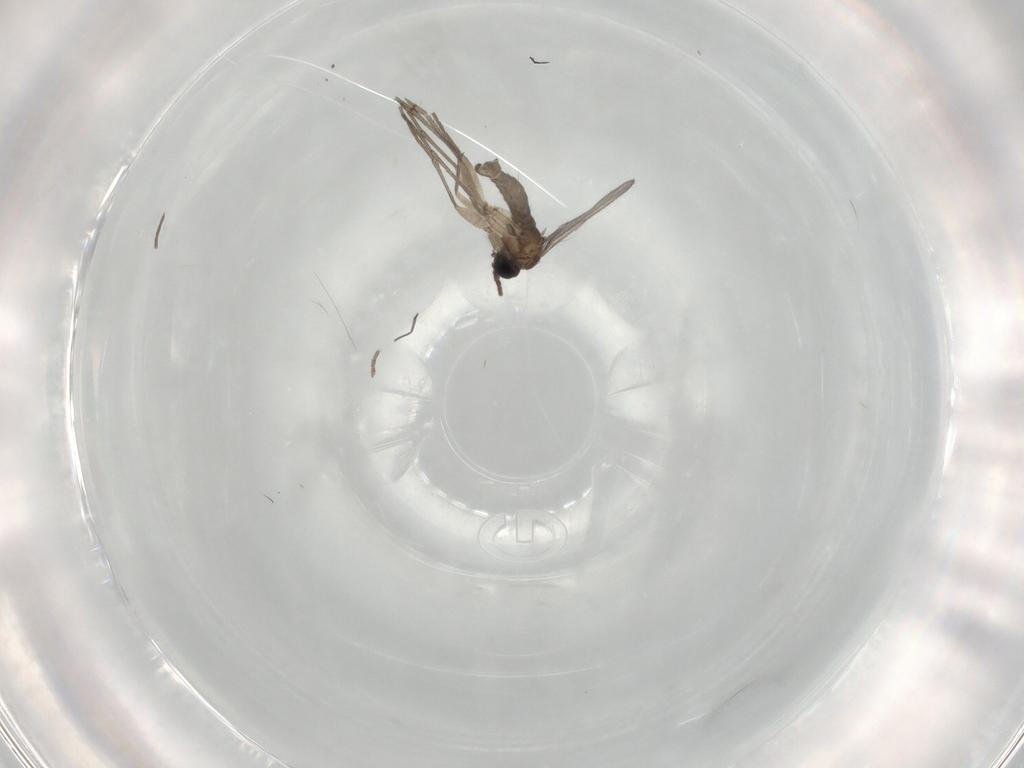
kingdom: Animalia
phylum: Arthropoda
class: Insecta
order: Diptera
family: Sciaridae
